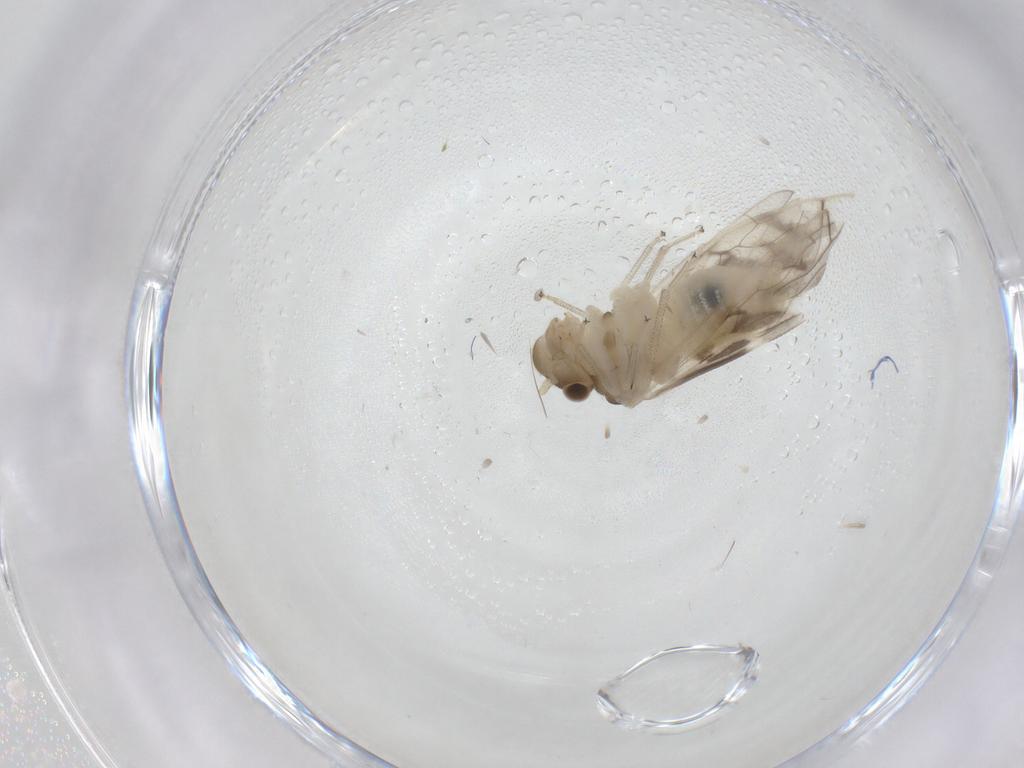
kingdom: Animalia
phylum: Arthropoda
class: Insecta
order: Psocodea
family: Caeciliusidae
